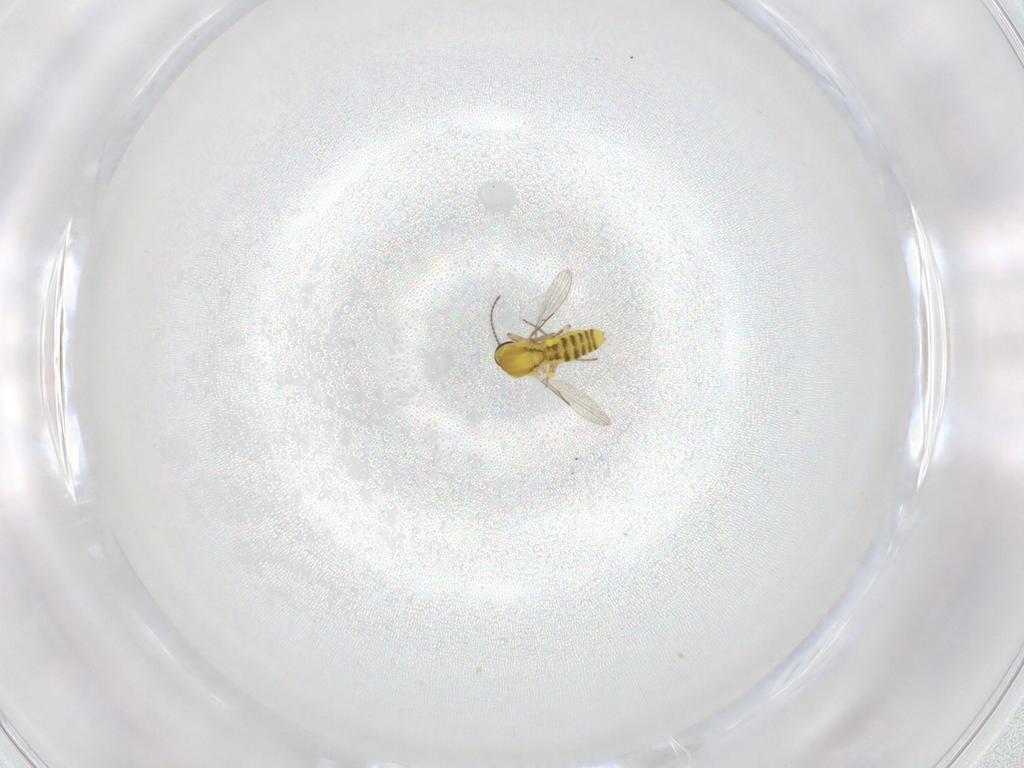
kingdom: Animalia
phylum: Arthropoda
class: Insecta
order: Diptera
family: Ceratopogonidae
